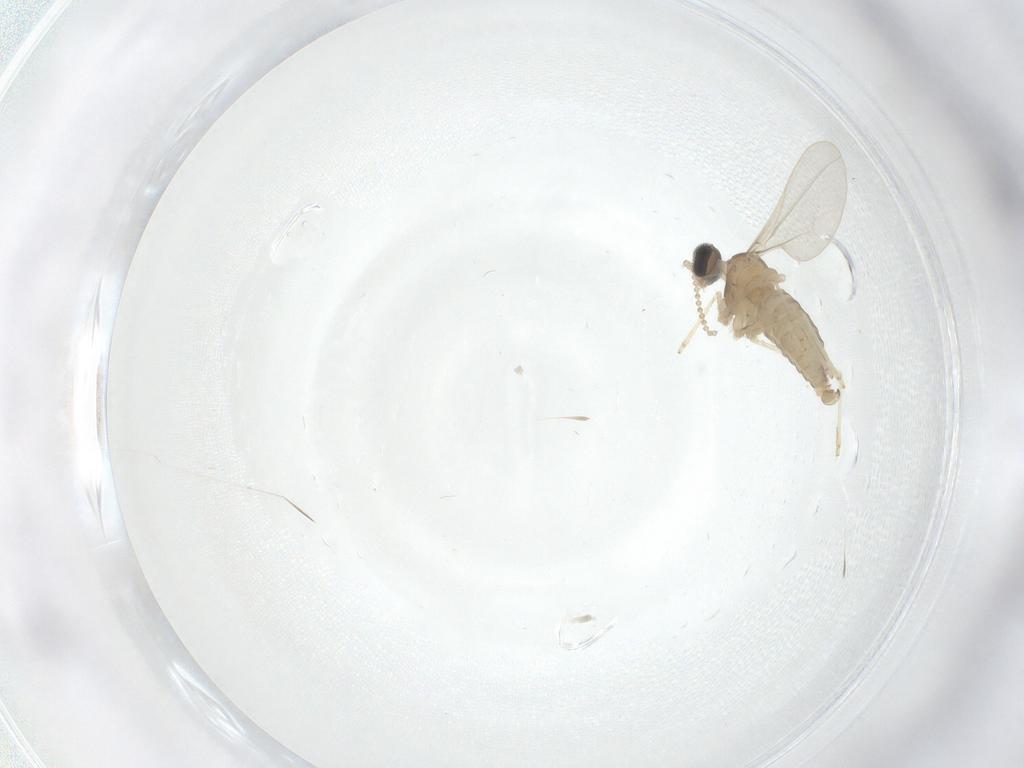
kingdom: Animalia
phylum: Arthropoda
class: Insecta
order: Diptera
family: Cecidomyiidae
